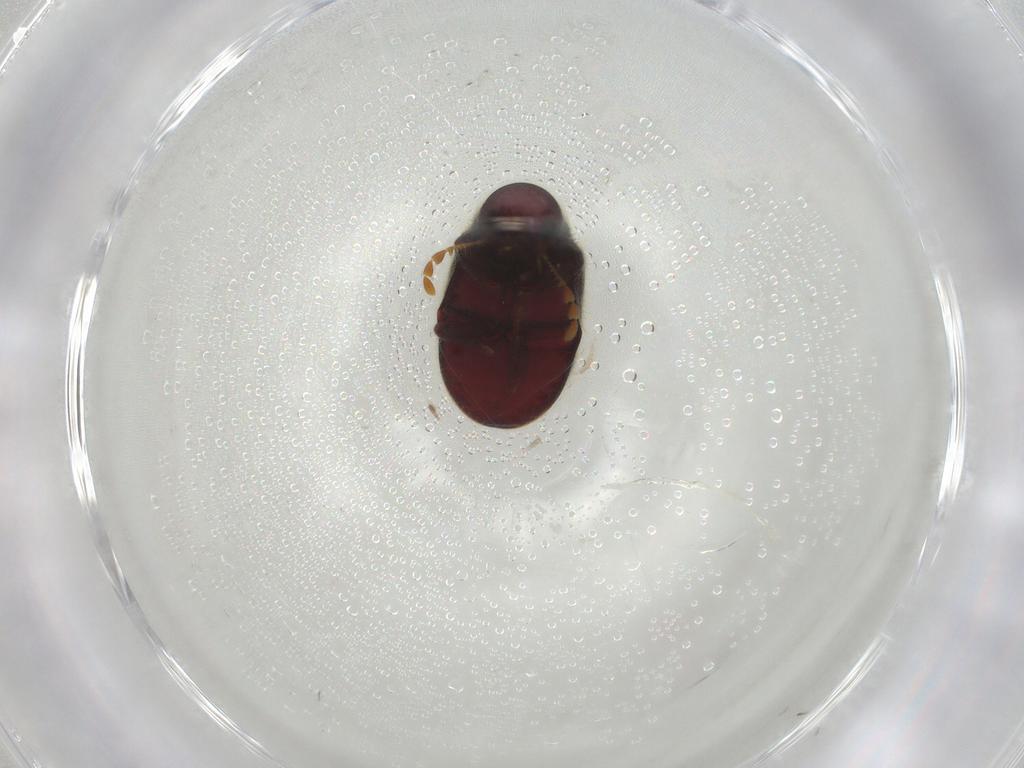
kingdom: Animalia
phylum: Arthropoda
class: Insecta
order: Coleoptera
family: Ptinidae
